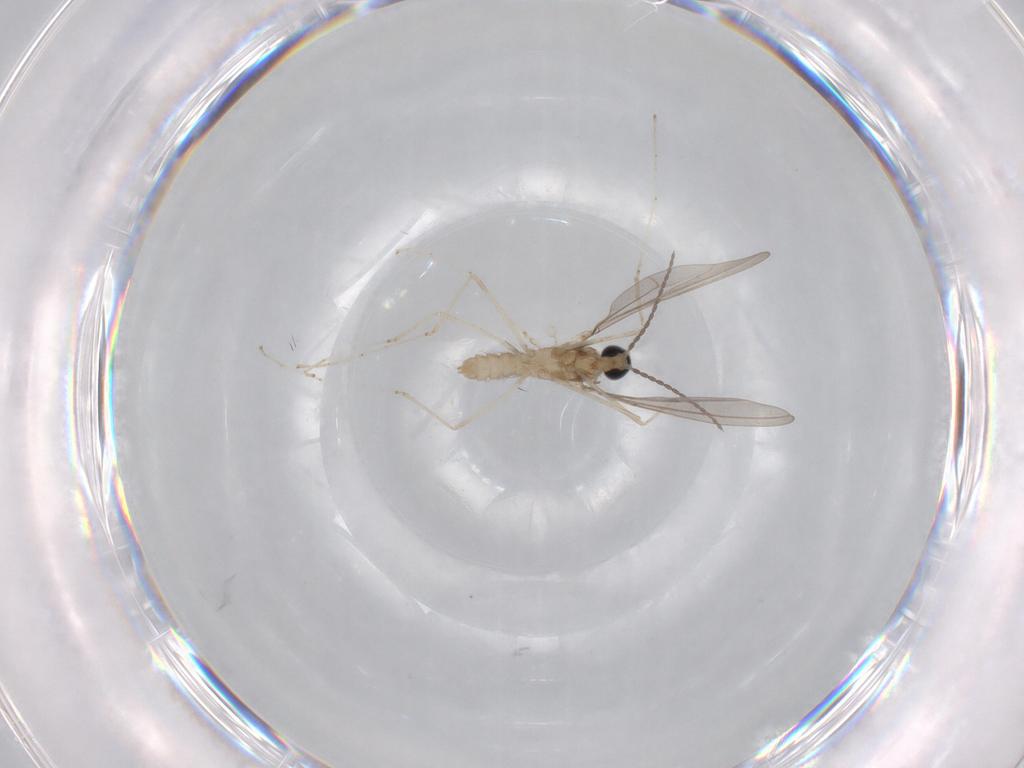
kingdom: Animalia
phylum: Arthropoda
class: Insecta
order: Diptera
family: Cecidomyiidae
